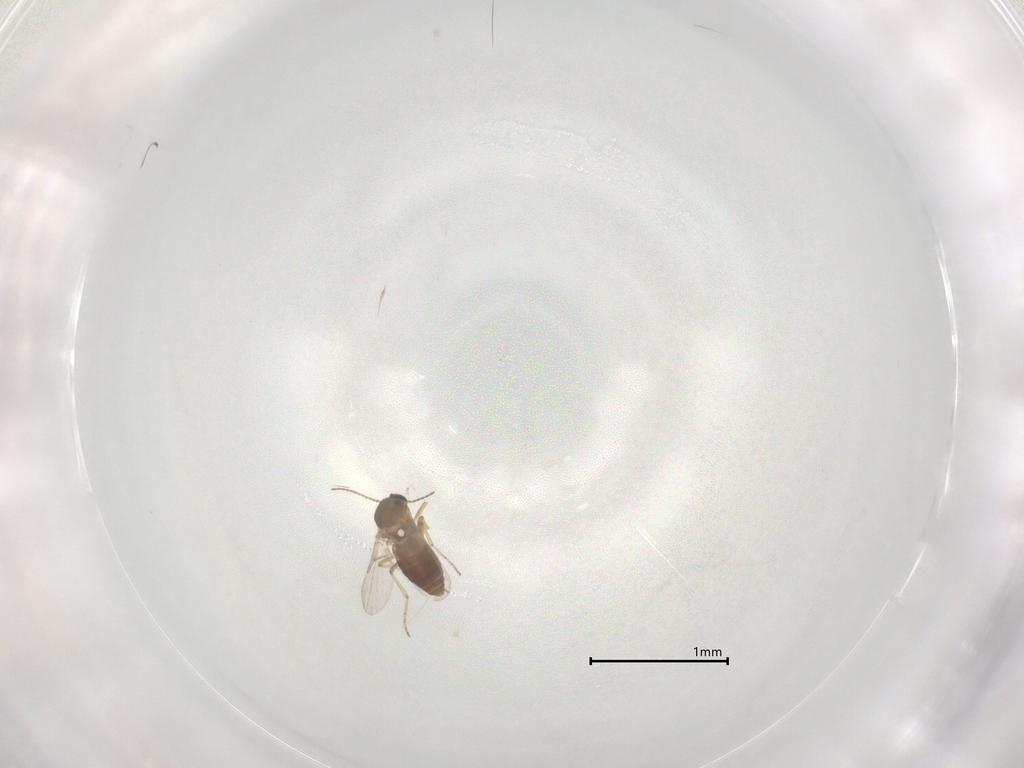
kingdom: Animalia
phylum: Arthropoda
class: Insecta
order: Diptera
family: Ceratopogonidae
